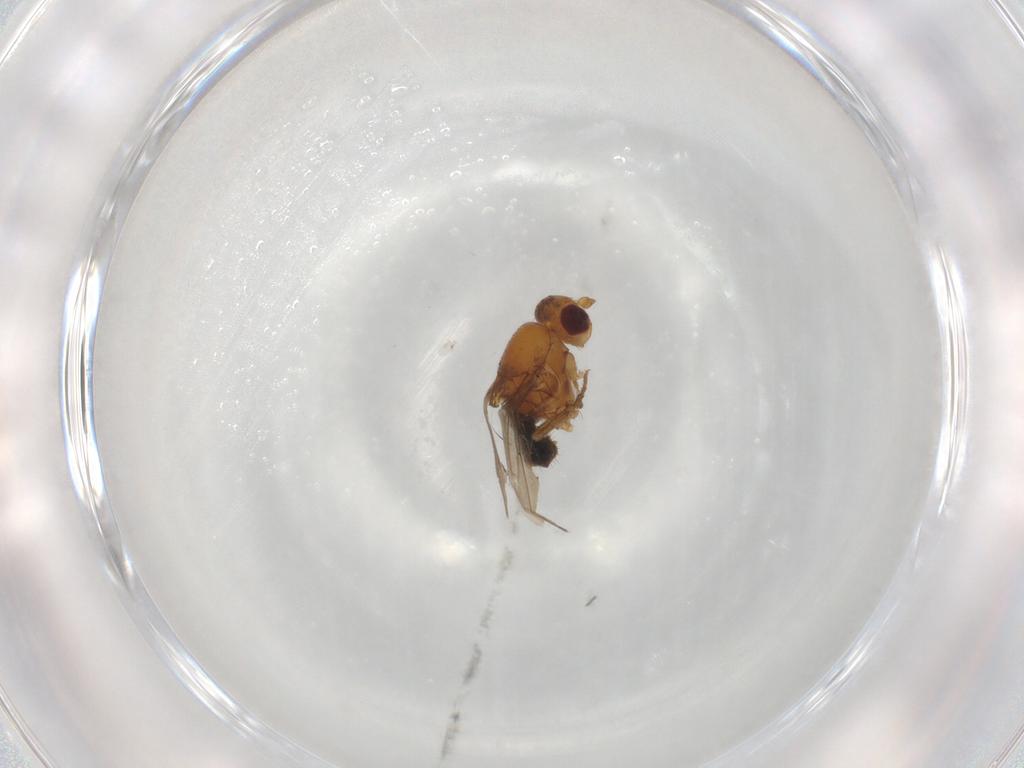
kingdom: Animalia
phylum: Arthropoda
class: Insecta
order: Diptera
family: Sphaeroceridae
